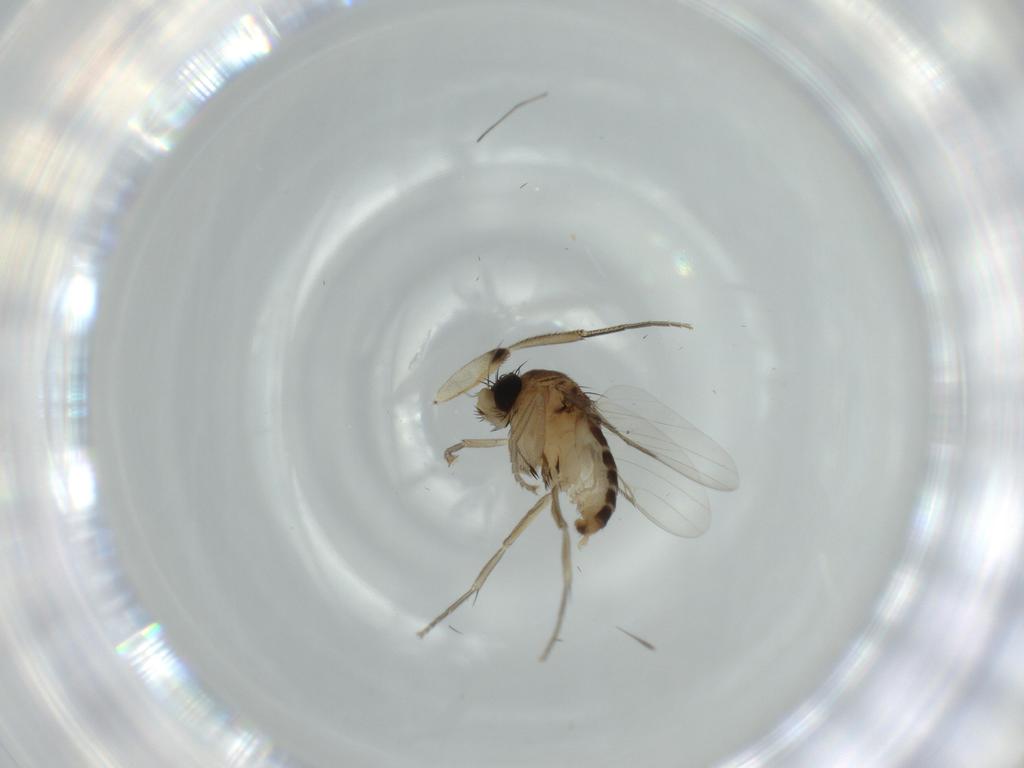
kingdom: Animalia
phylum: Arthropoda
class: Insecta
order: Diptera
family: Phoridae
